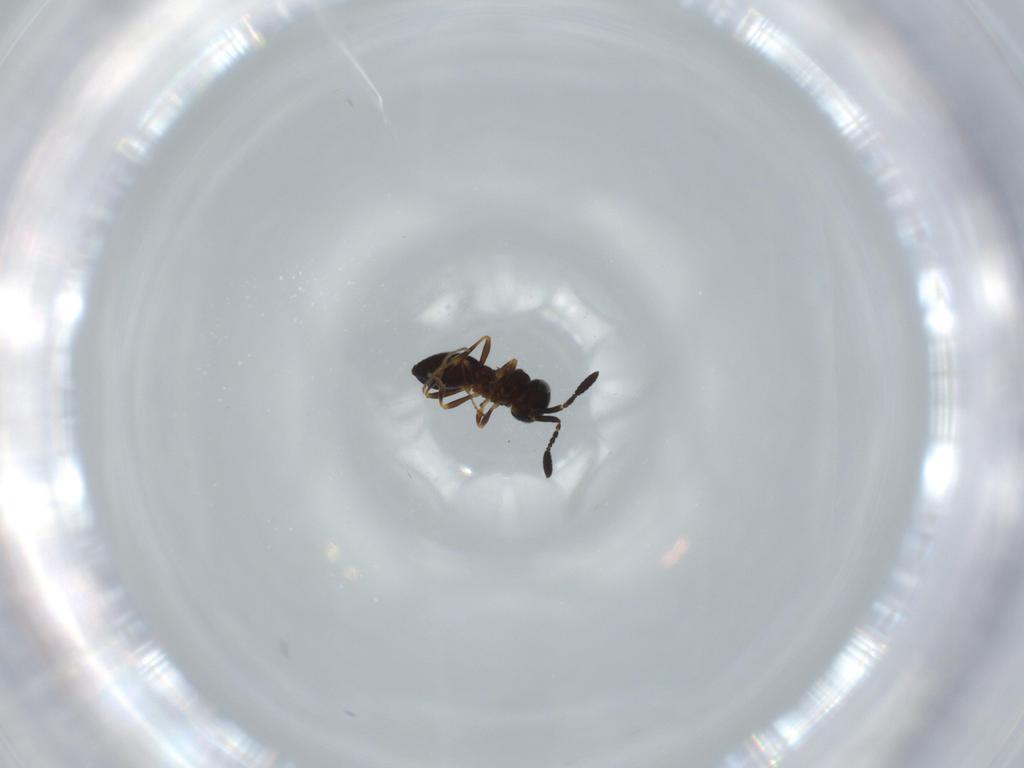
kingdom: Animalia
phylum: Arthropoda
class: Insecta
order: Hymenoptera
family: Scelionidae
